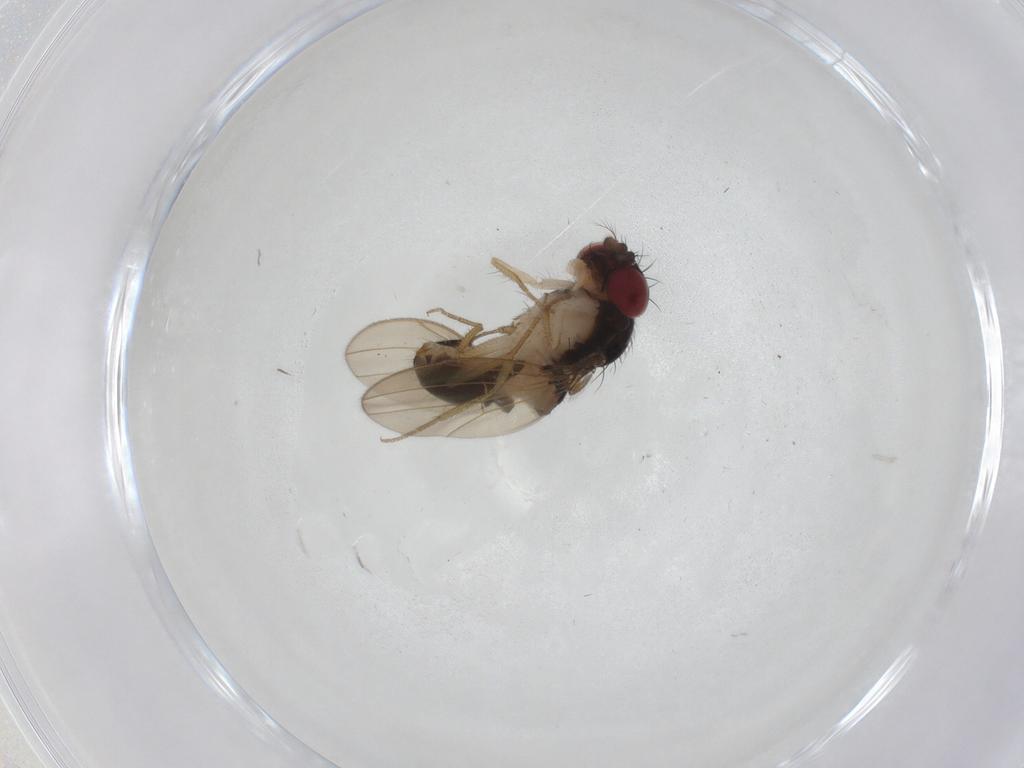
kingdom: Animalia
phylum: Arthropoda
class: Insecta
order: Diptera
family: Drosophilidae
